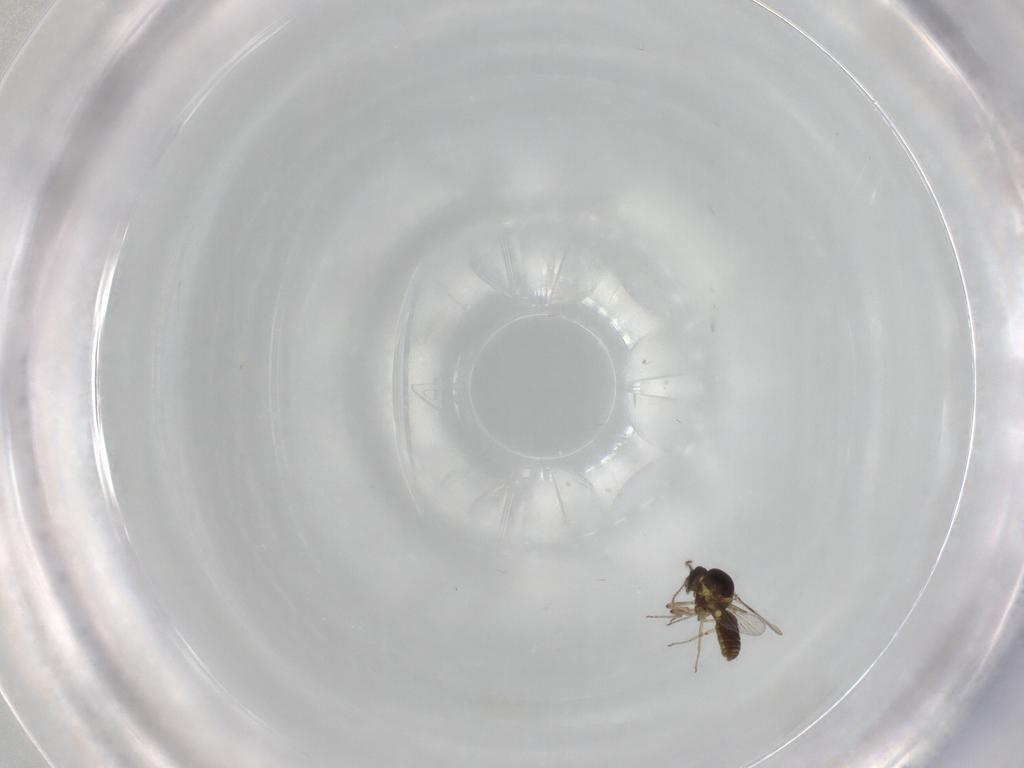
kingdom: Animalia
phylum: Arthropoda
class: Insecta
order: Diptera
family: Ceratopogonidae
